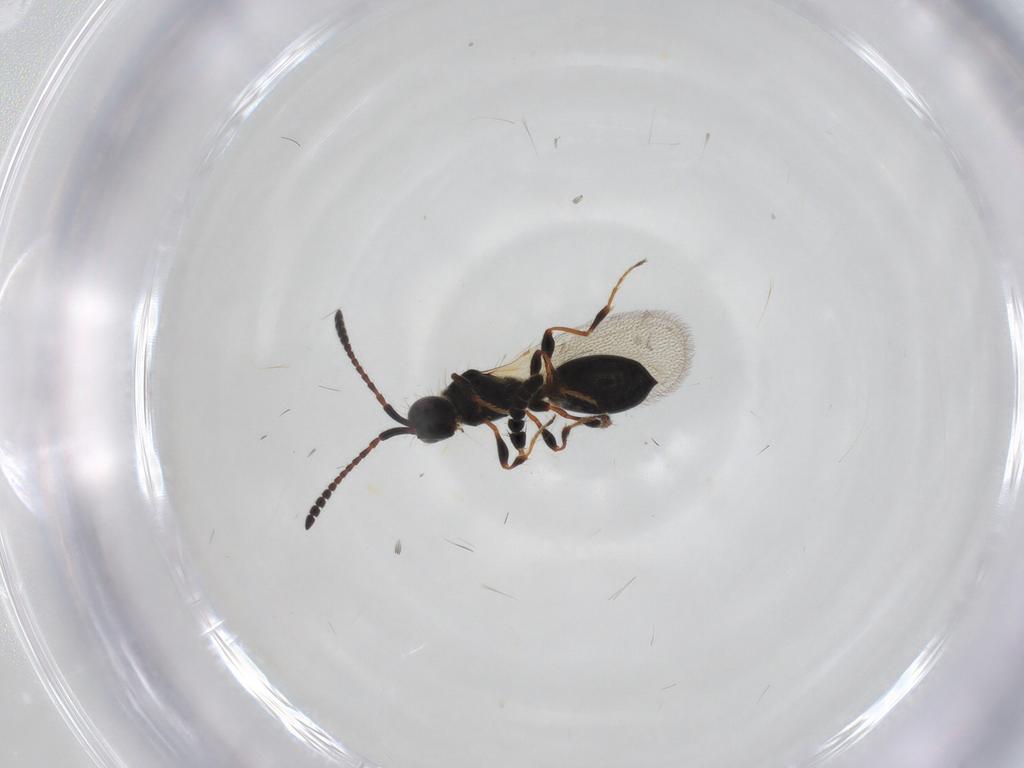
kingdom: Animalia
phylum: Arthropoda
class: Insecta
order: Diptera
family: Bibionidae
